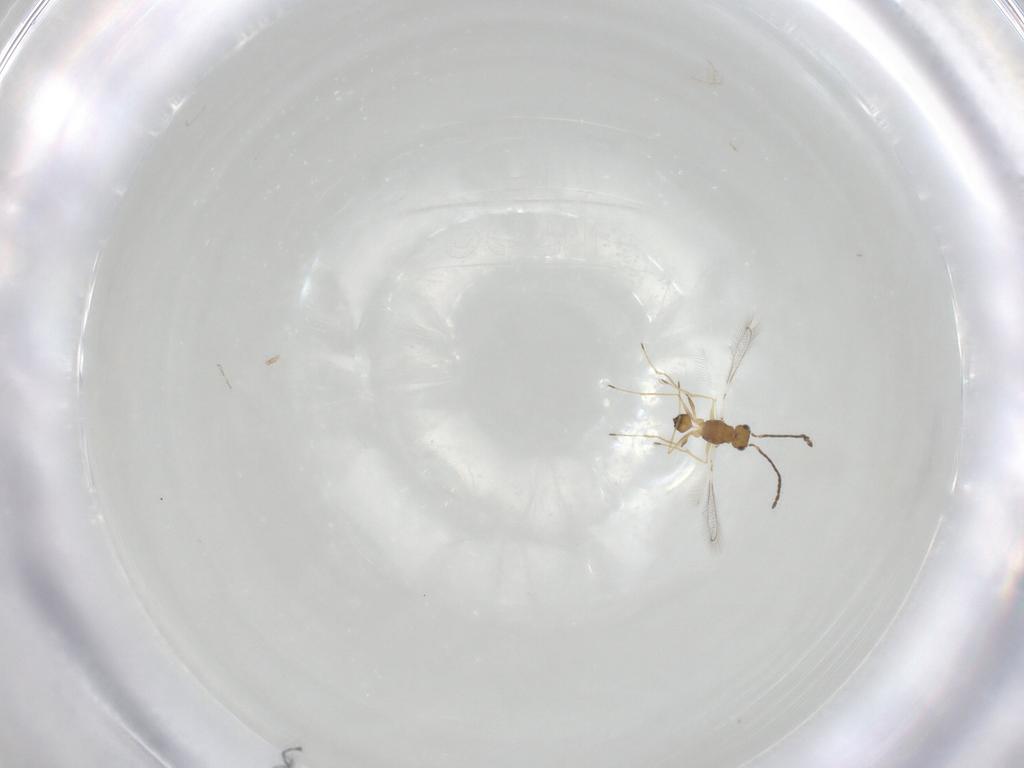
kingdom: Animalia
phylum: Arthropoda
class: Insecta
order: Hymenoptera
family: Mymaridae
